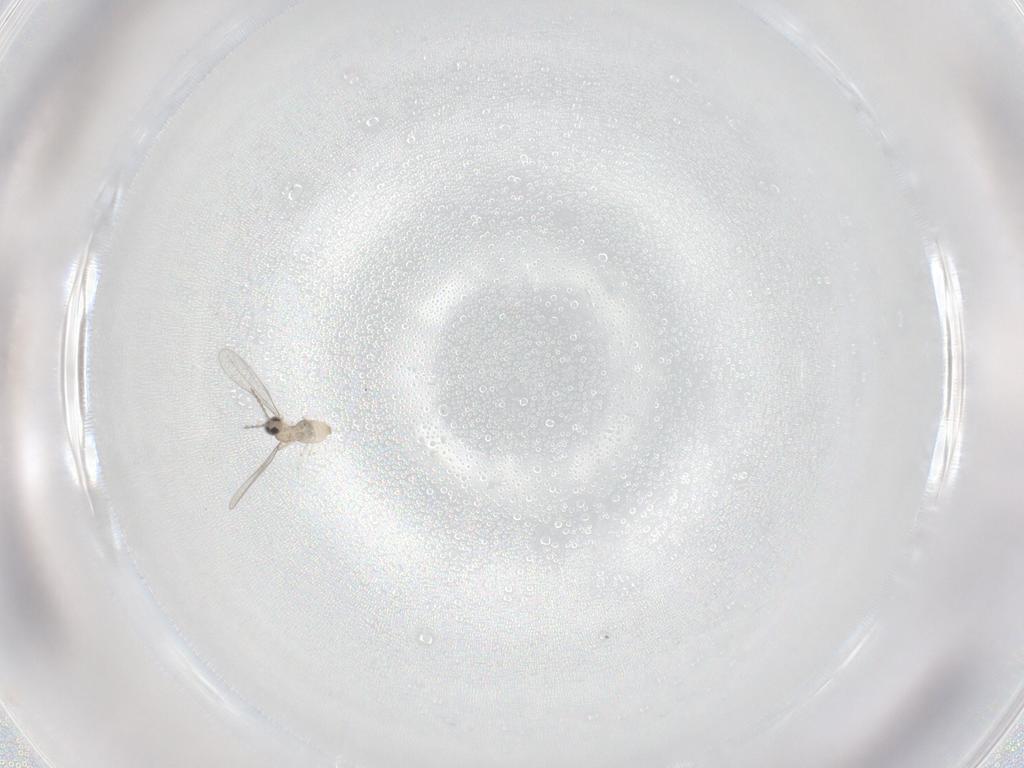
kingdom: Animalia
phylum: Arthropoda
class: Insecta
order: Diptera
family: Cecidomyiidae
